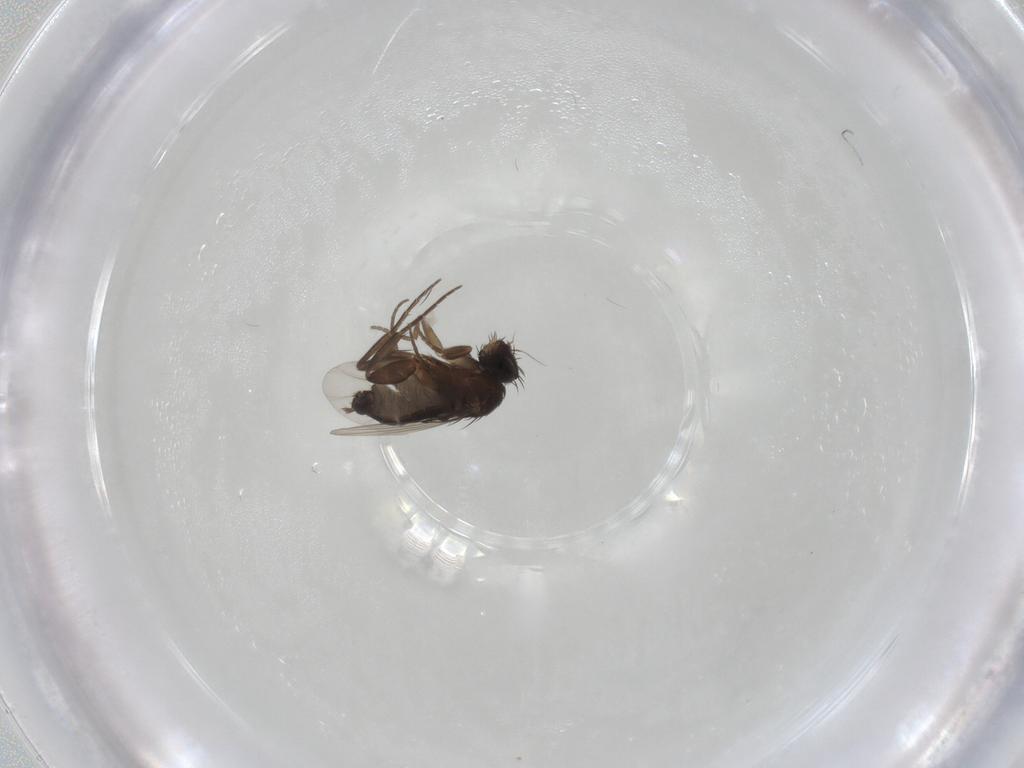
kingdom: Animalia
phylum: Arthropoda
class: Insecta
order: Diptera
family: Phoridae
